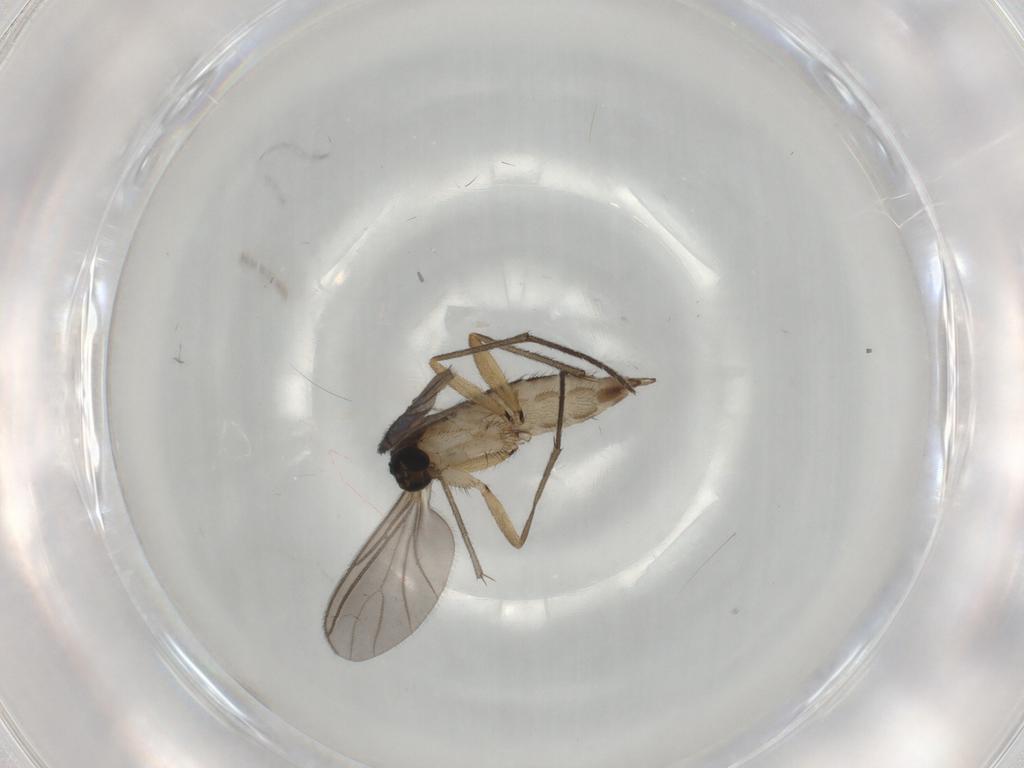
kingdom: Animalia
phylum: Arthropoda
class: Insecta
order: Diptera
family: Sciaridae
